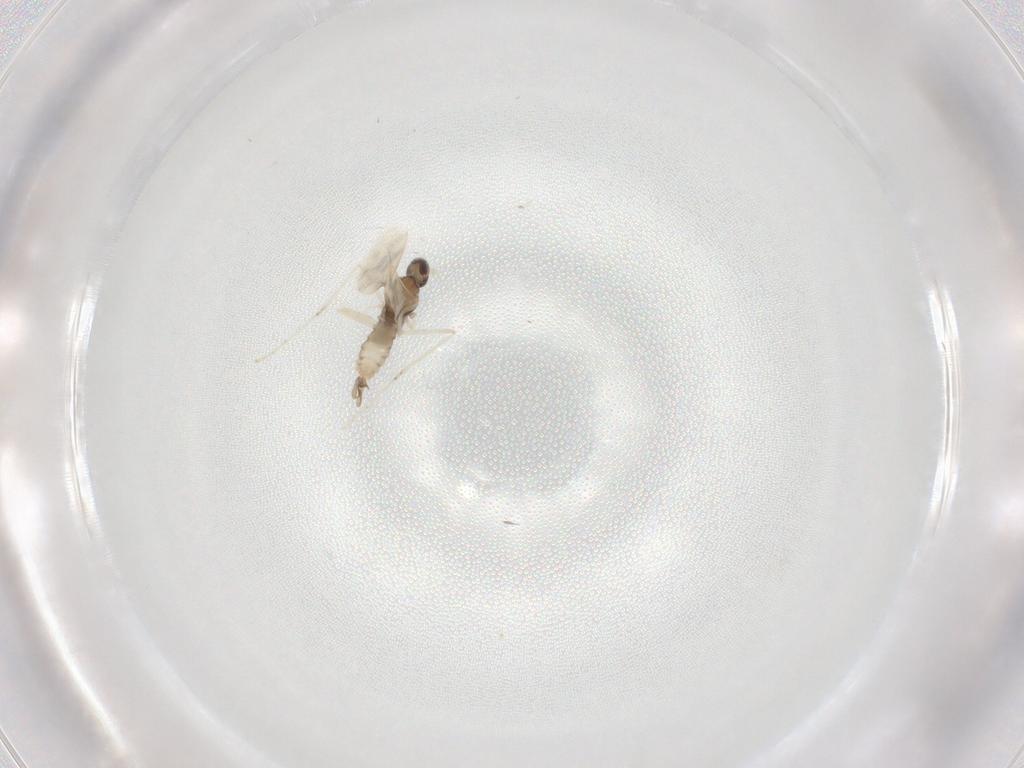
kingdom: Animalia
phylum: Arthropoda
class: Insecta
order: Diptera
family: Cecidomyiidae
